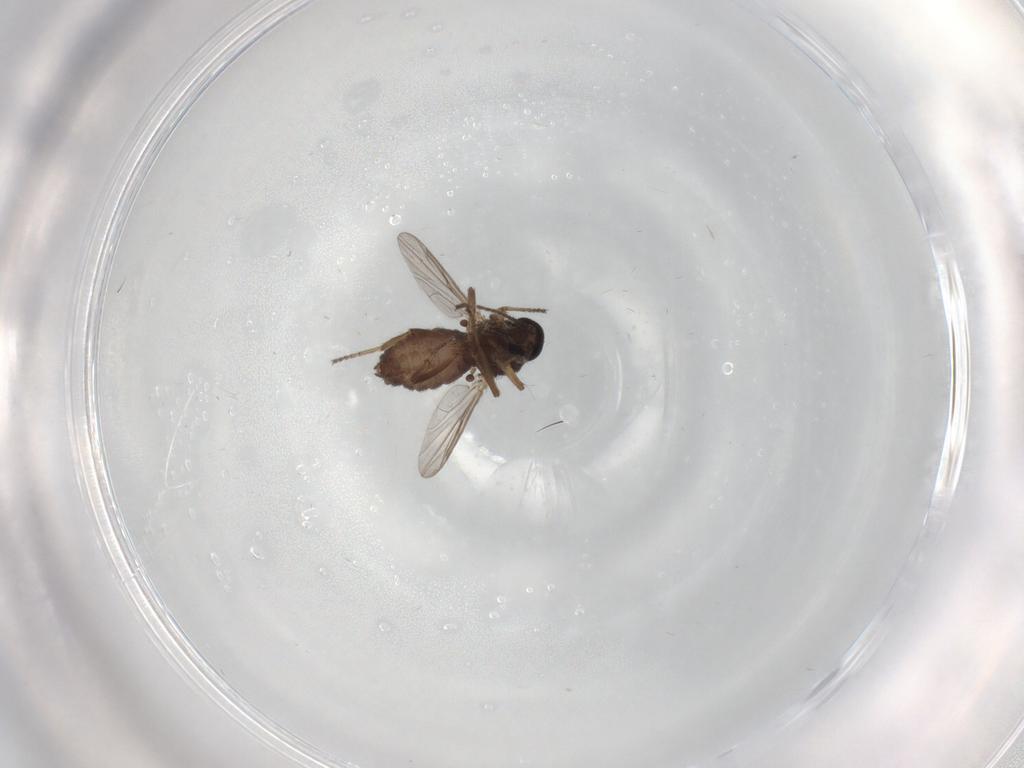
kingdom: Animalia
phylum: Arthropoda
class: Insecta
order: Diptera
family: Ceratopogonidae
